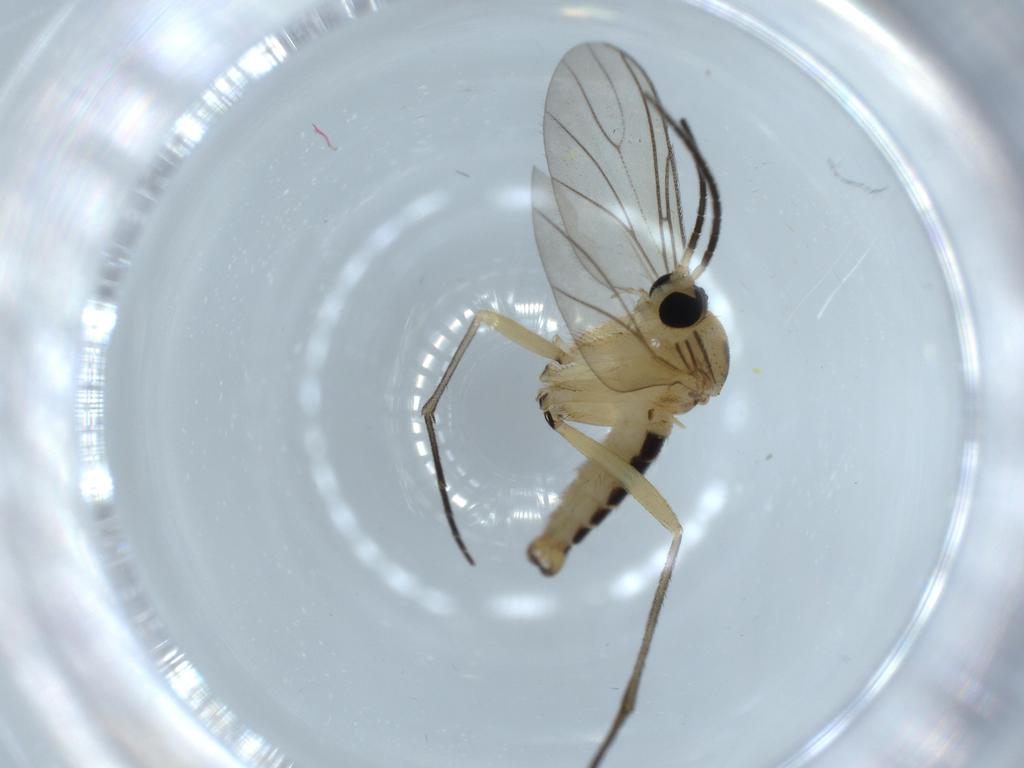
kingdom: Animalia
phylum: Arthropoda
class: Insecta
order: Diptera
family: Sciaridae
